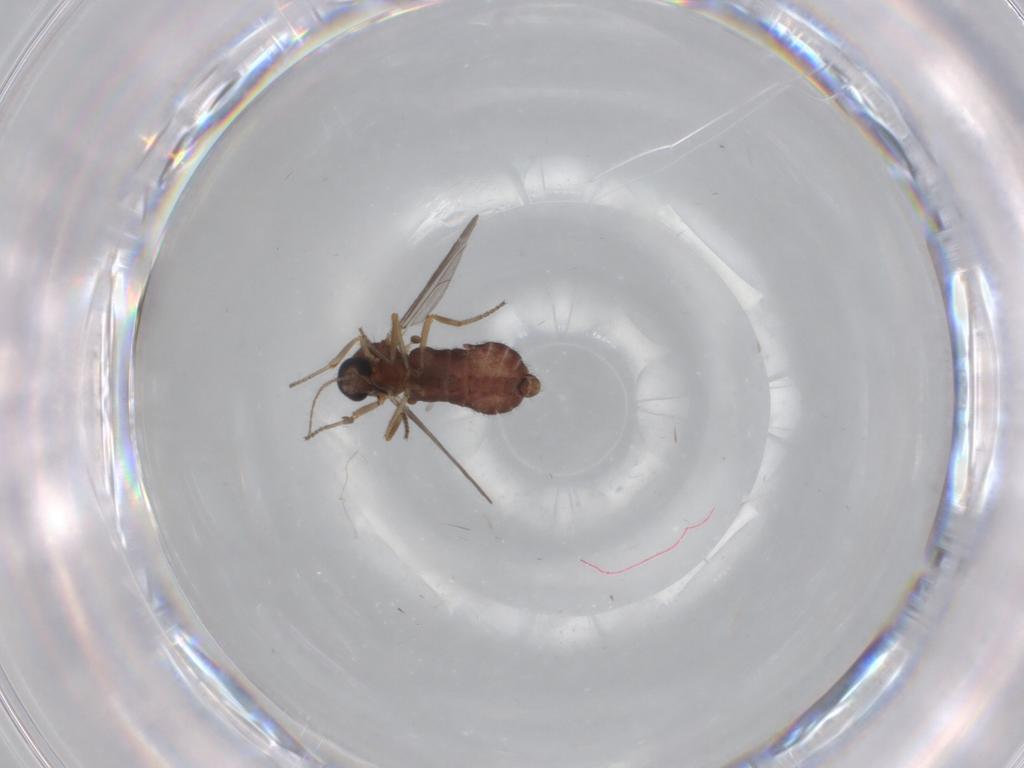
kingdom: Animalia
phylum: Arthropoda
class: Insecta
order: Diptera
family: Ceratopogonidae
